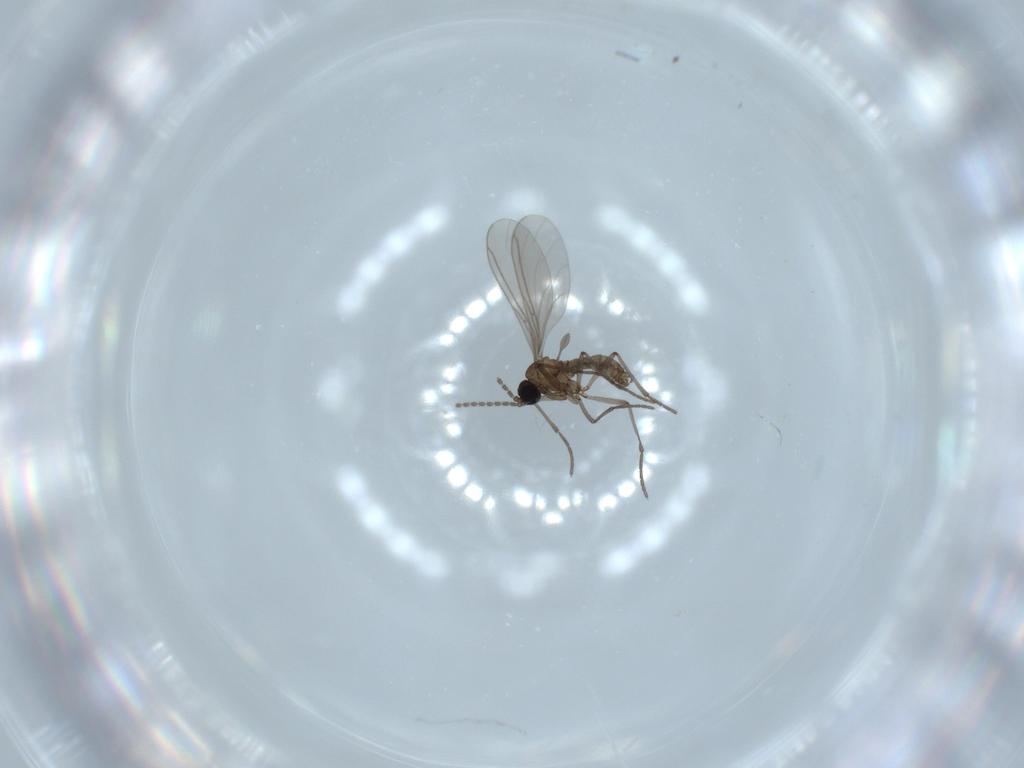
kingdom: Animalia
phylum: Arthropoda
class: Insecta
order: Diptera
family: Sciaridae
